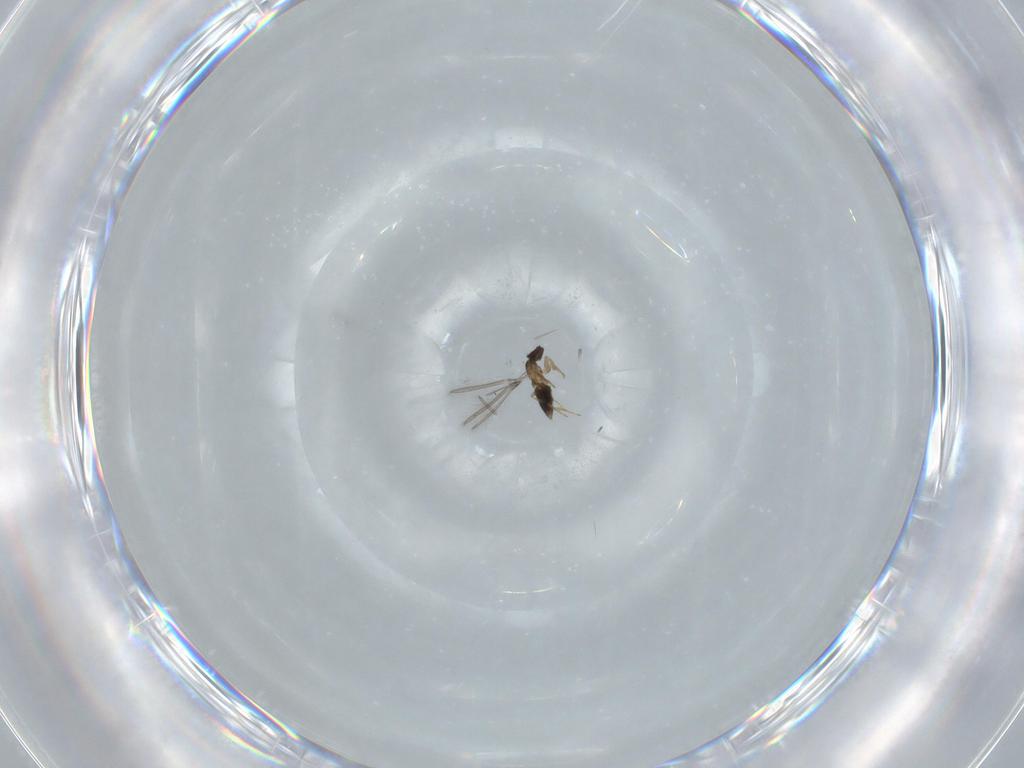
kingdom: Animalia
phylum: Arthropoda
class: Insecta
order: Hymenoptera
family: Mymaridae
